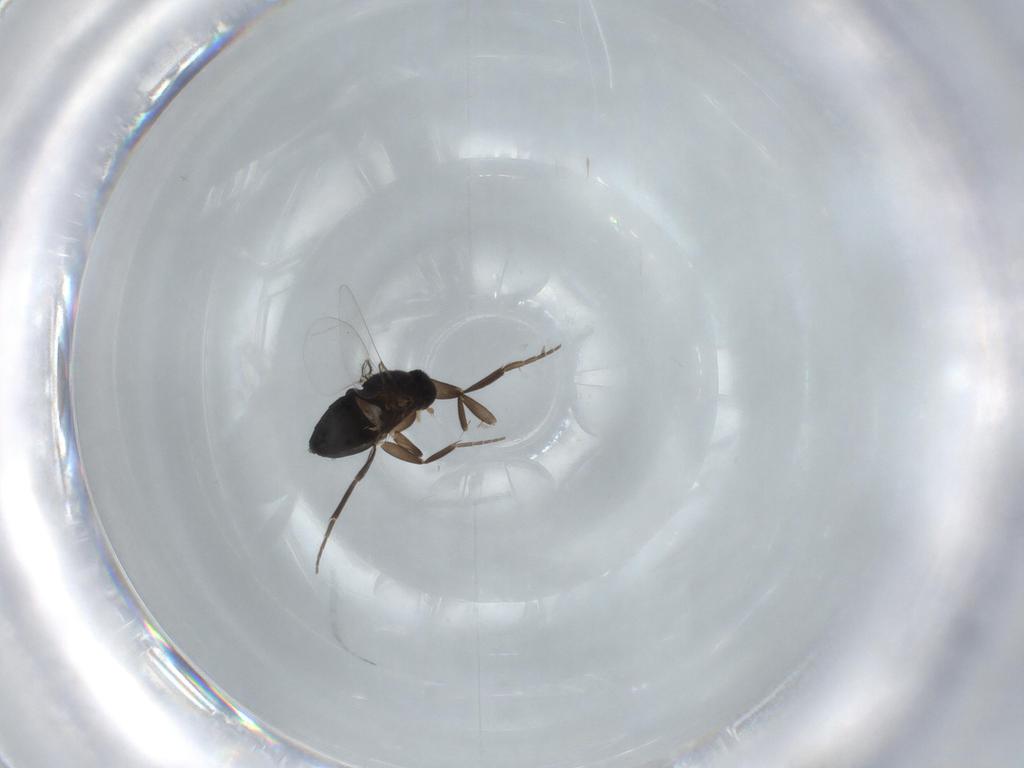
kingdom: Animalia
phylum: Arthropoda
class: Insecta
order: Diptera
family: Phoridae
